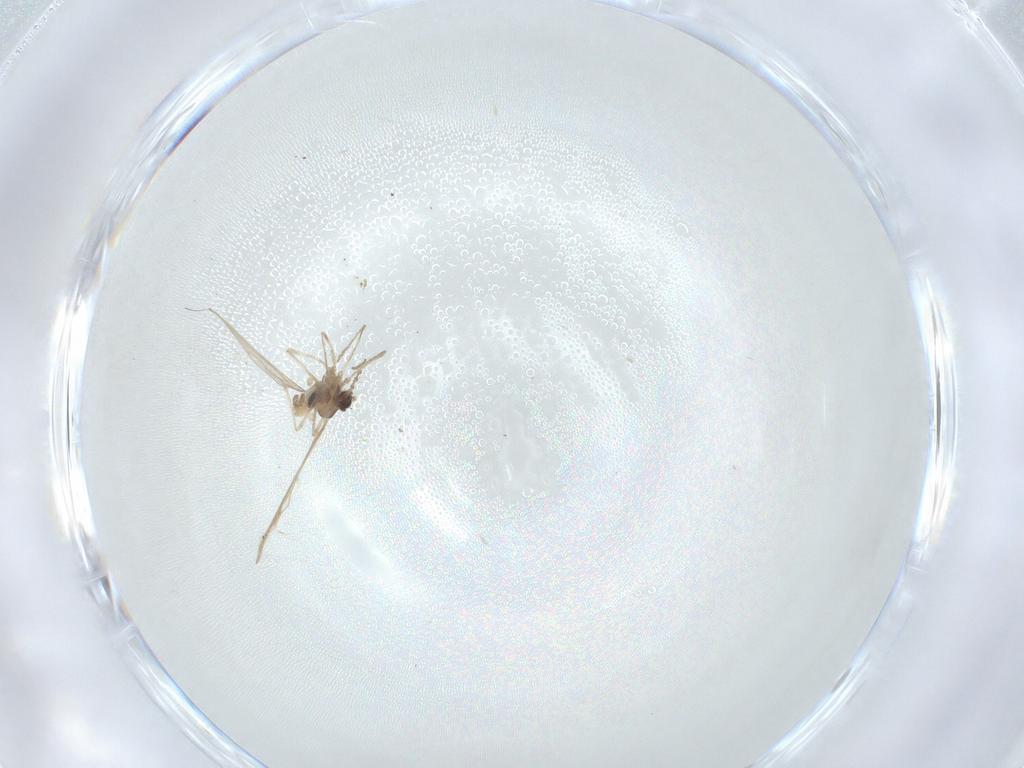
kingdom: Animalia
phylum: Arthropoda
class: Insecta
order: Diptera
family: Cecidomyiidae
